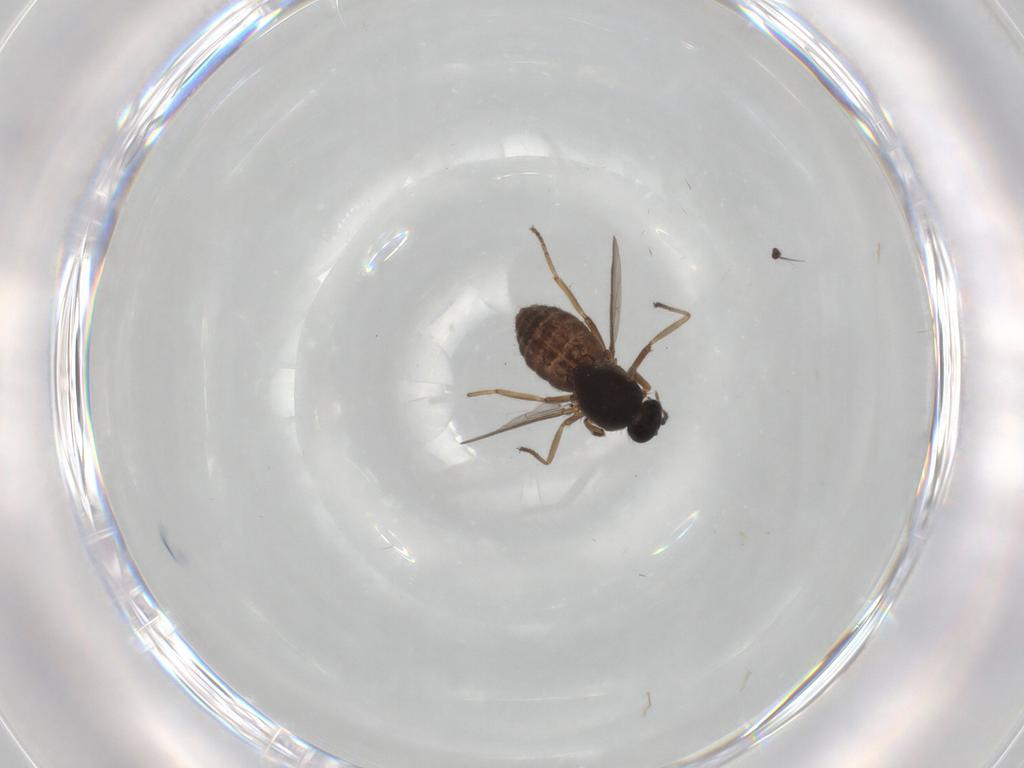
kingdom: Animalia
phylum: Arthropoda
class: Insecta
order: Diptera
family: Ceratopogonidae
